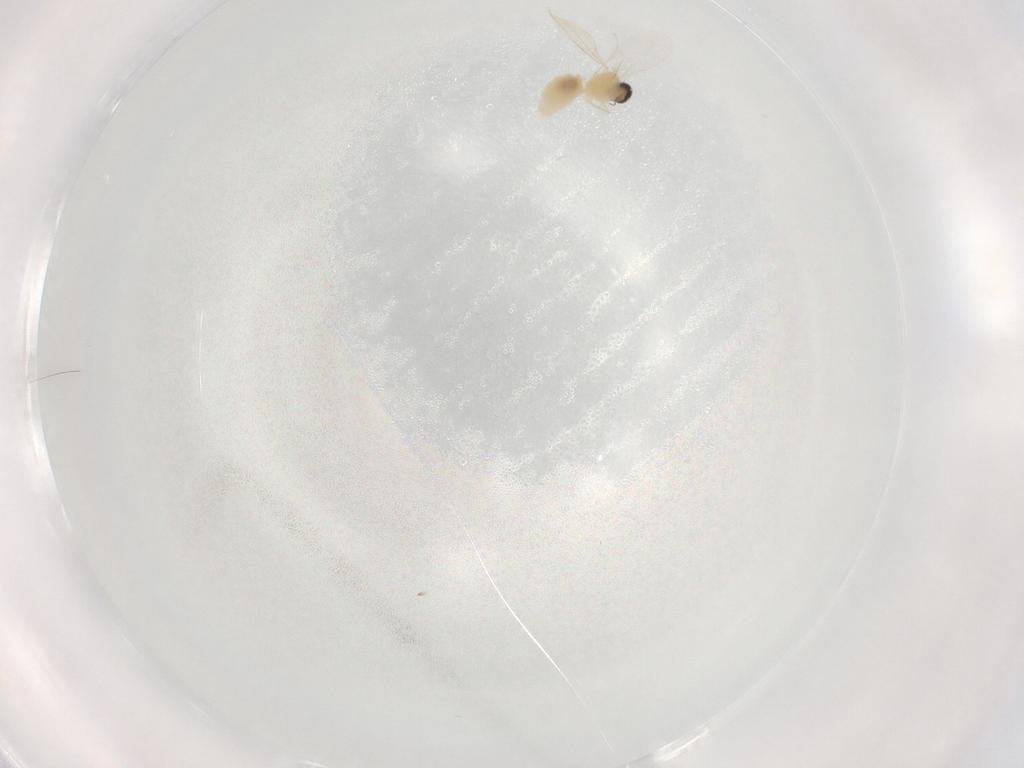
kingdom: Animalia
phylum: Arthropoda
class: Insecta
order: Diptera
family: Cecidomyiidae
